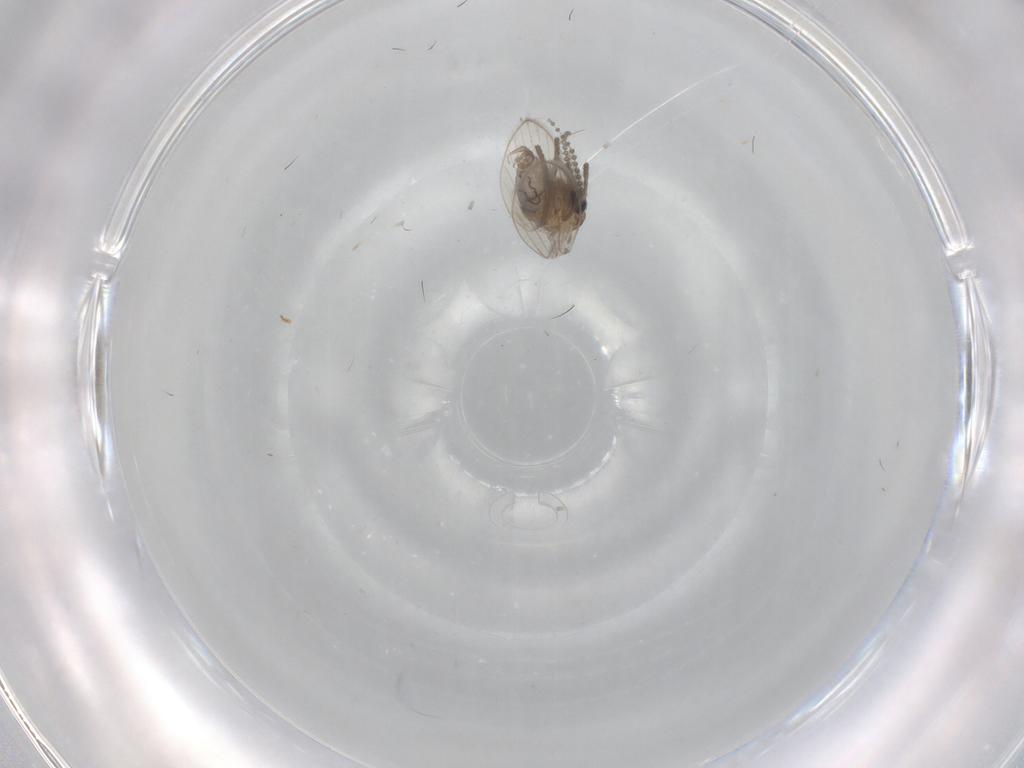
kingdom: Animalia
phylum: Arthropoda
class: Insecta
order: Diptera
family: Psychodidae
